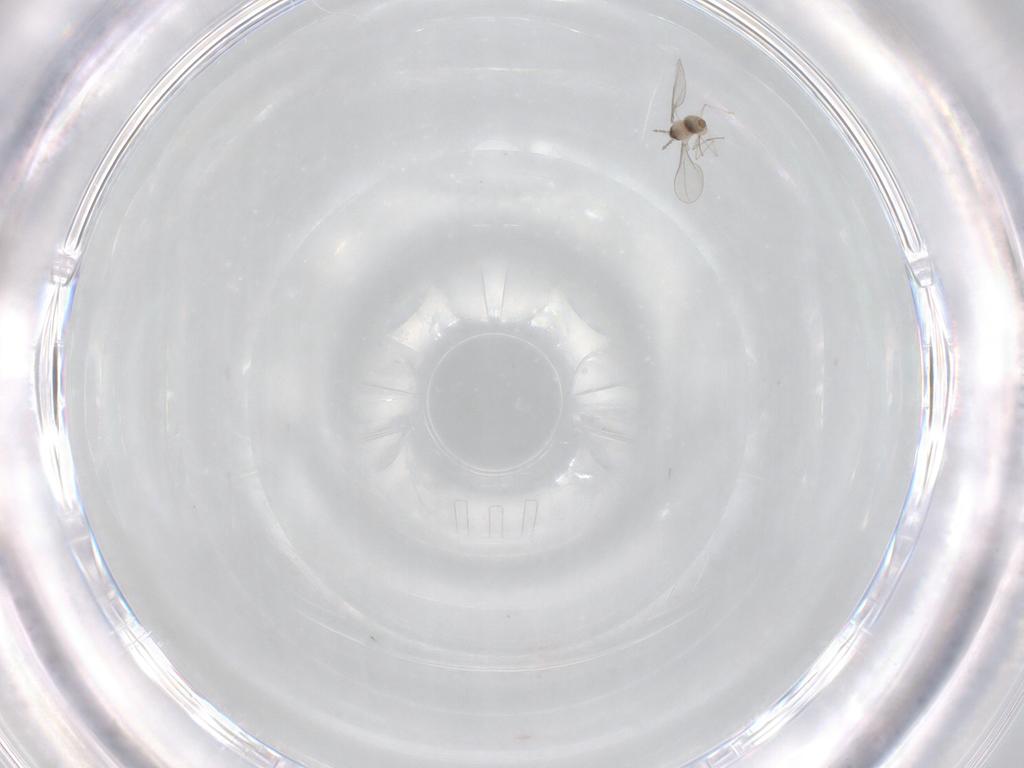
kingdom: Animalia
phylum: Arthropoda
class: Insecta
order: Diptera
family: Cecidomyiidae
